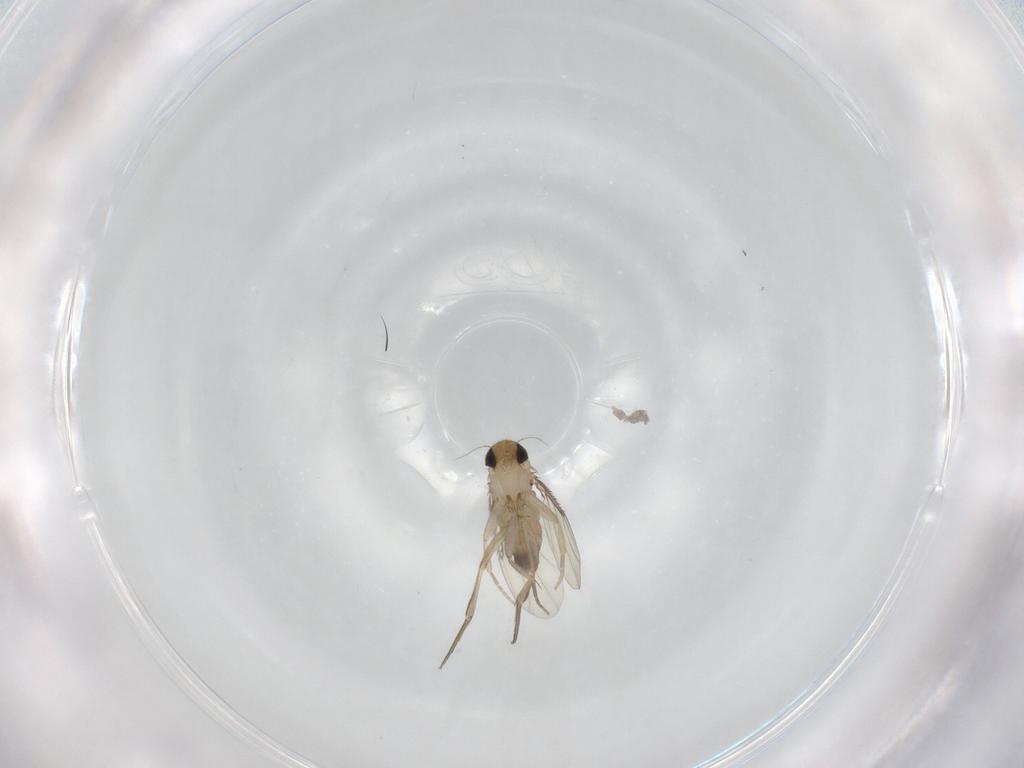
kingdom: Animalia
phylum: Arthropoda
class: Insecta
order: Diptera
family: Phoridae
